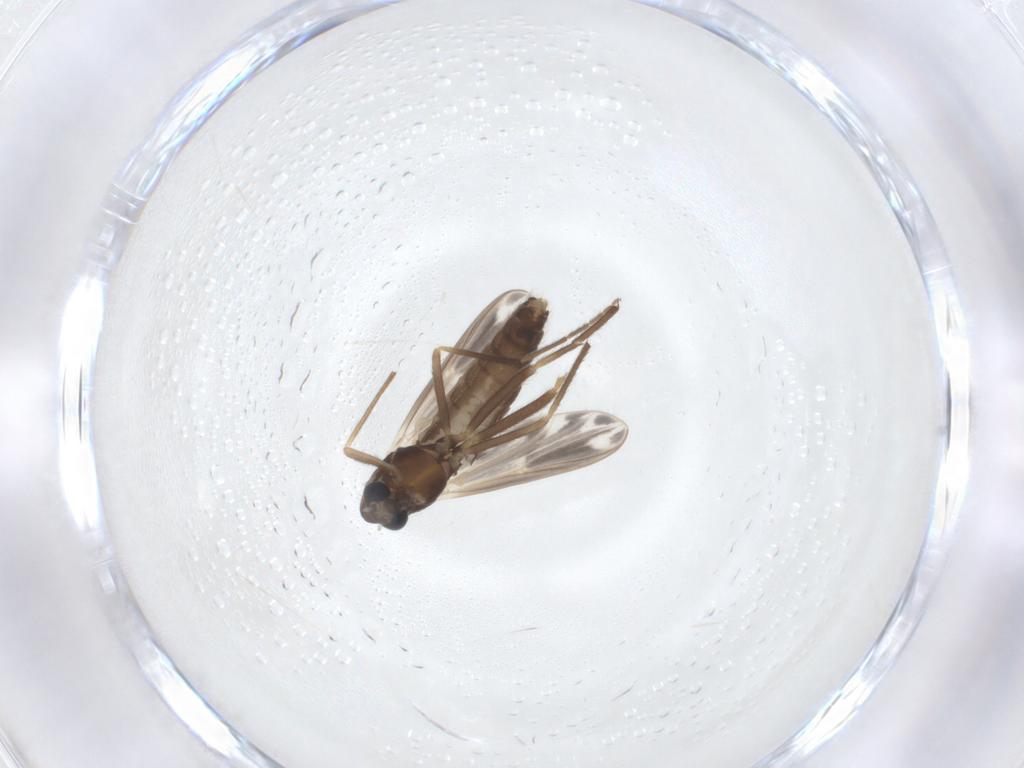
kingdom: Animalia
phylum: Arthropoda
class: Insecta
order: Diptera
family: Chironomidae
